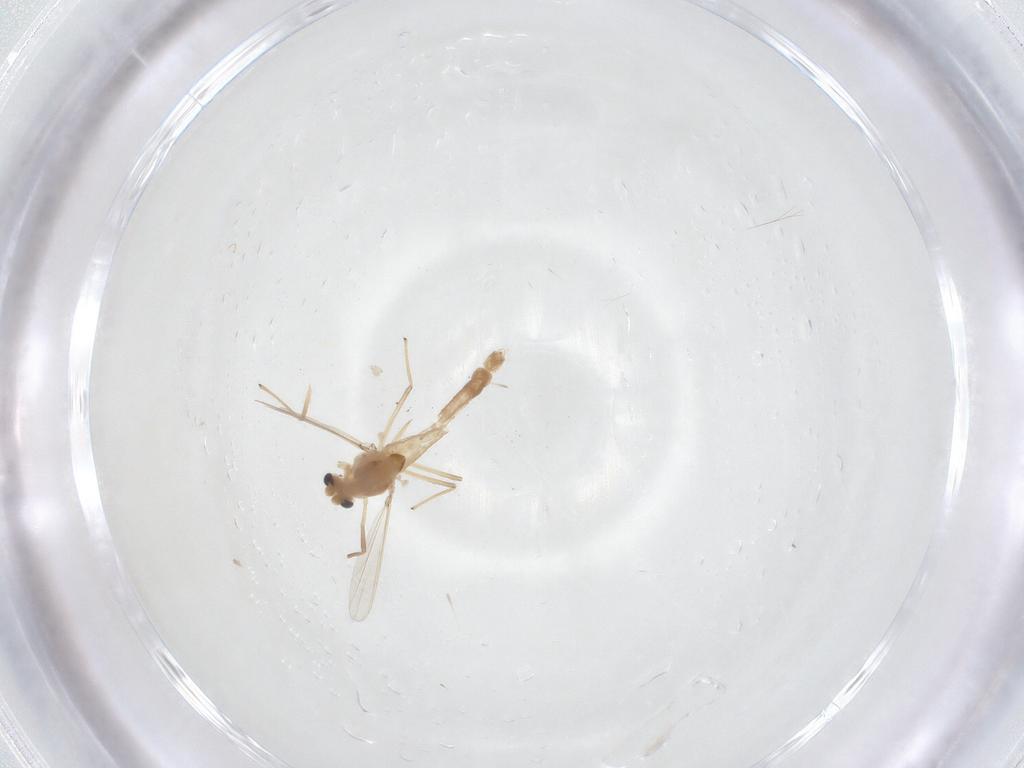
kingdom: Animalia
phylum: Arthropoda
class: Insecta
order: Diptera
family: Chironomidae
